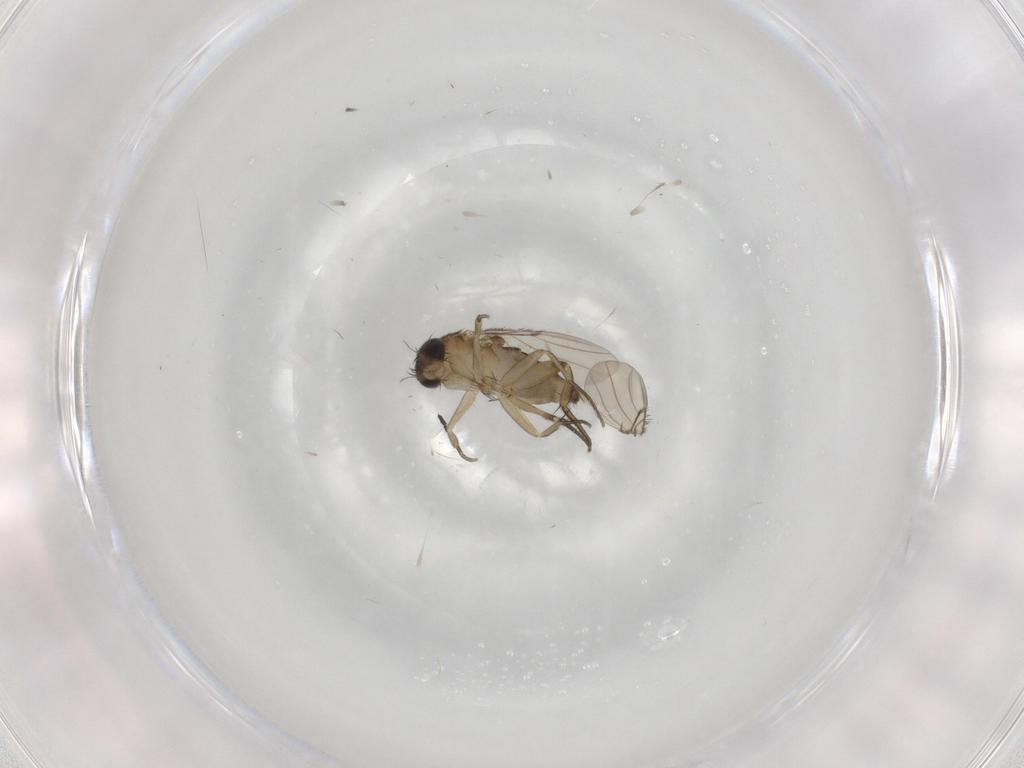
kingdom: Animalia
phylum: Arthropoda
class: Insecta
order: Diptera
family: Phoridae
